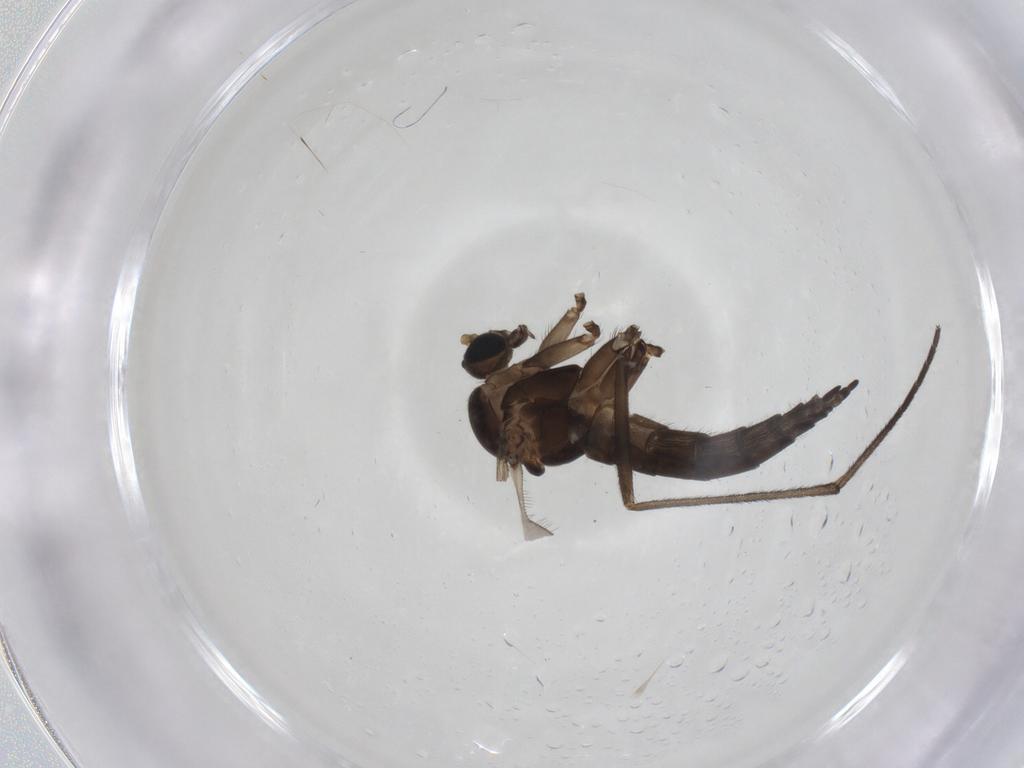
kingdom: Animalia
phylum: Arthropoda
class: Insecta
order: Diptera
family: Sciaridae
